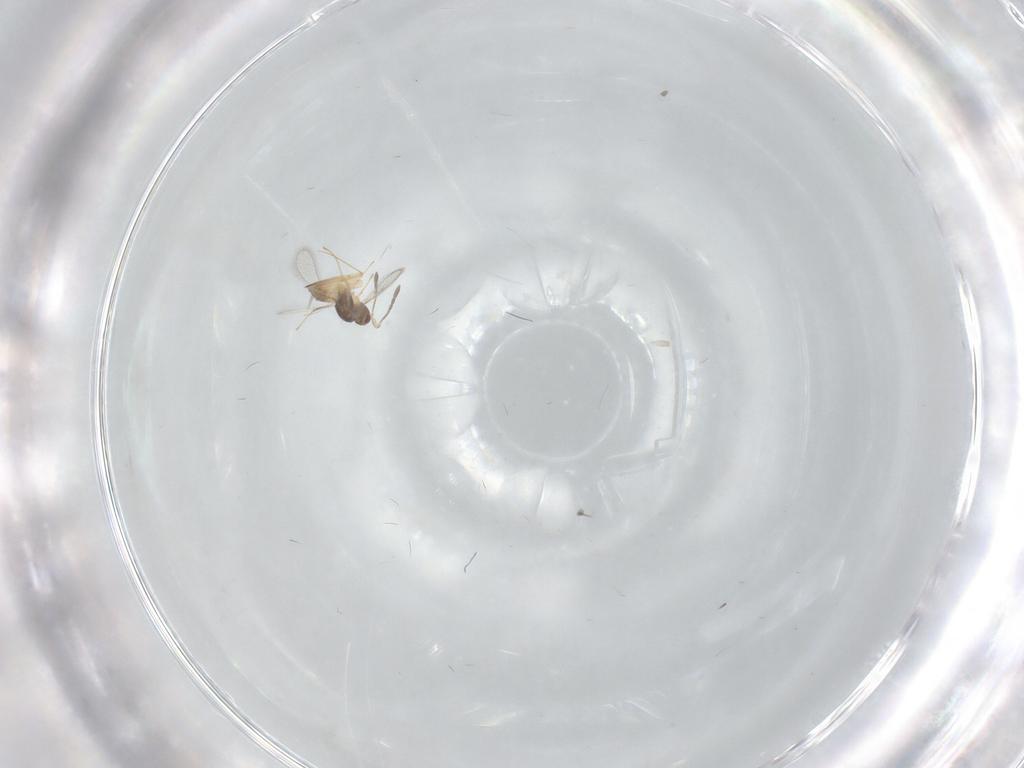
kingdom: Animalia
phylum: Arthropoda
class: Insecta
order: Hymenoptera
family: Mymaridae
